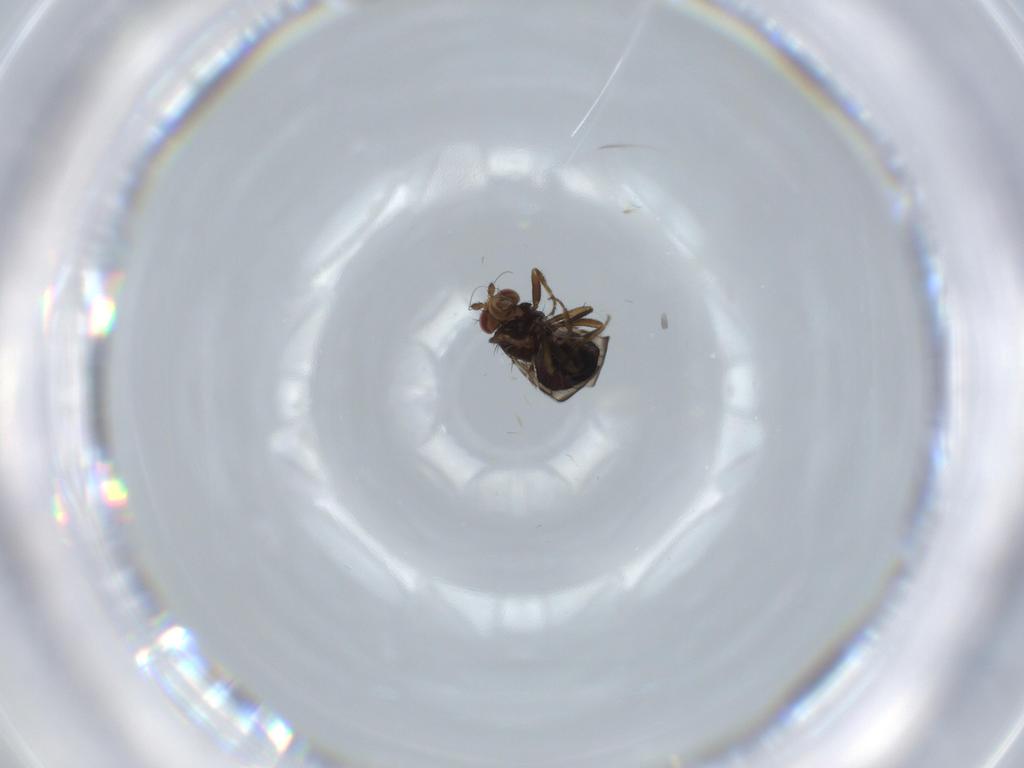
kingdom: Animalia
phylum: Arthropoda
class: Insecta
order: Diptera
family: Sphaeroceridae
